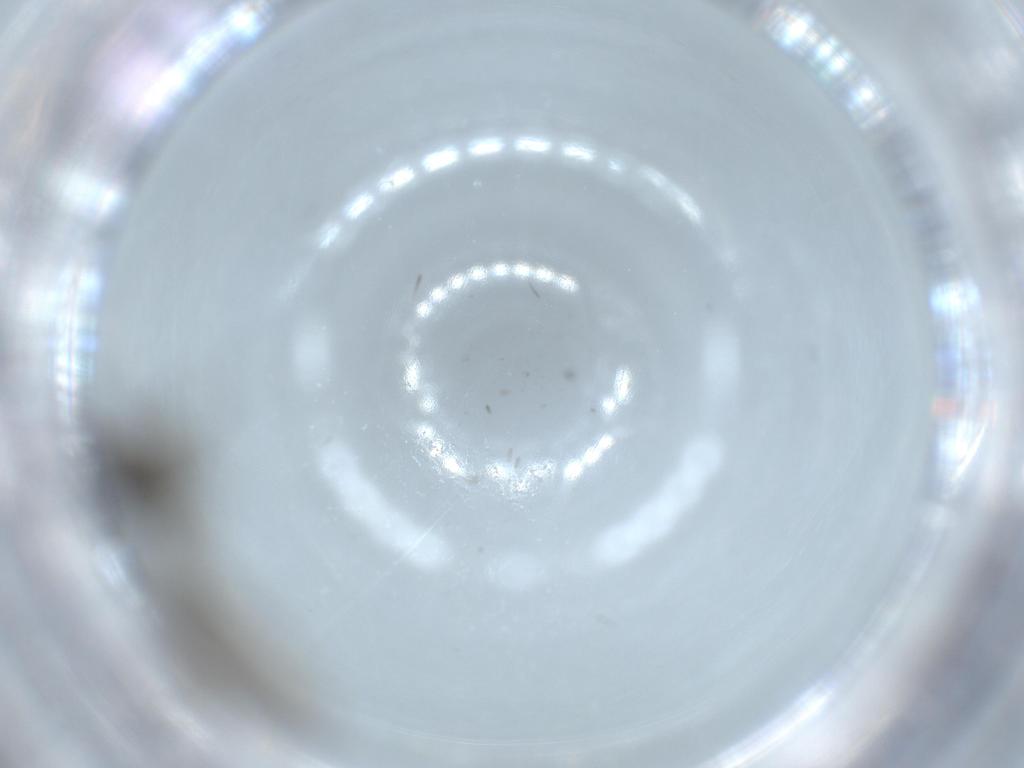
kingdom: Animalia
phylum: Arthropoda
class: Insecta
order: Diptera
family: Sciaridae
